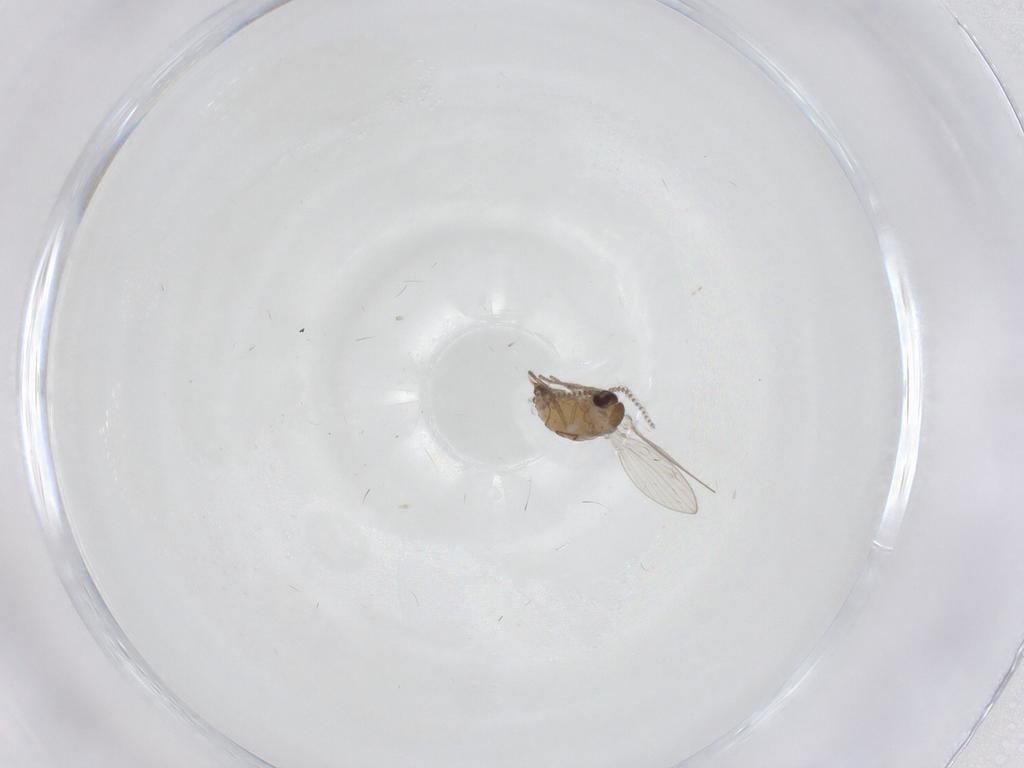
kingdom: Animalia
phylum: Arthropoda
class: Insecta
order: Diptera
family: Psychodidae
